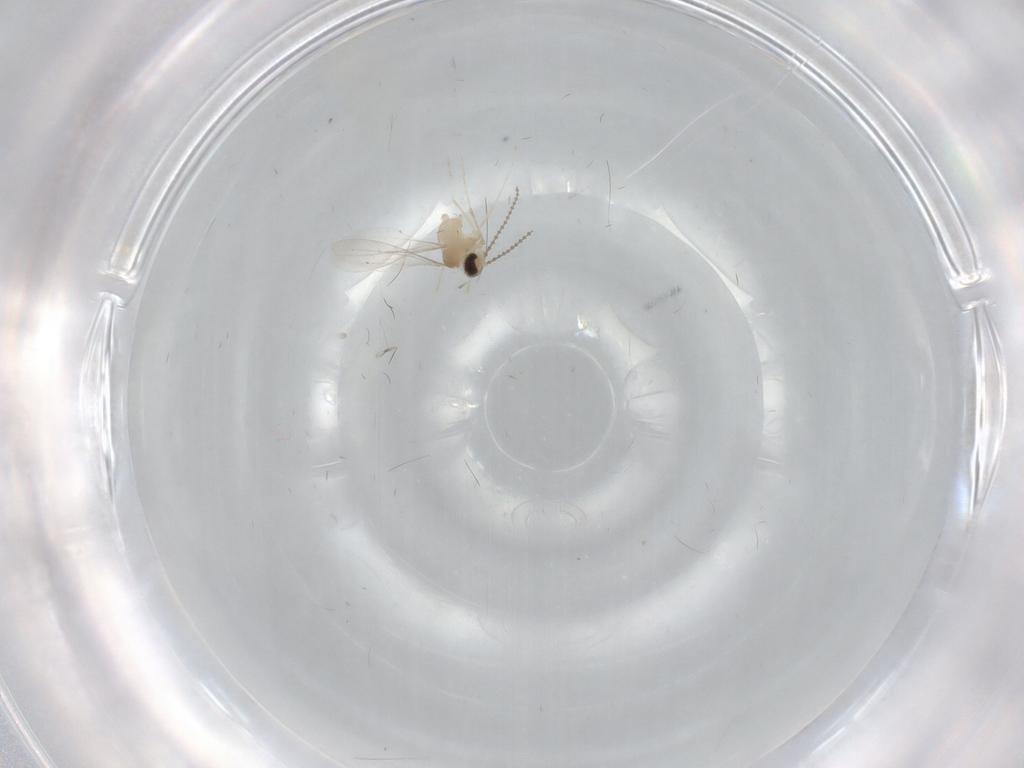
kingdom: Animalia
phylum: Arthropoda
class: Insecta
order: Diptera
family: Cecidomyiidae
